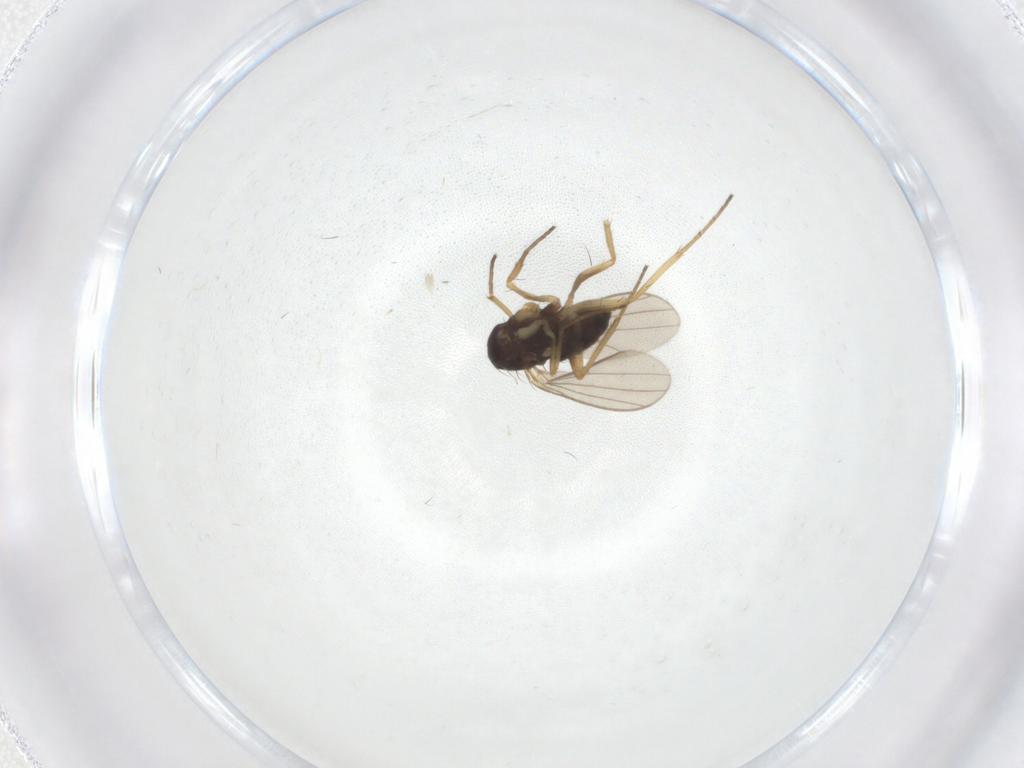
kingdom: Animalia
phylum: Arthropoda
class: Insecta
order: Diptera
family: Dolichopodidae
